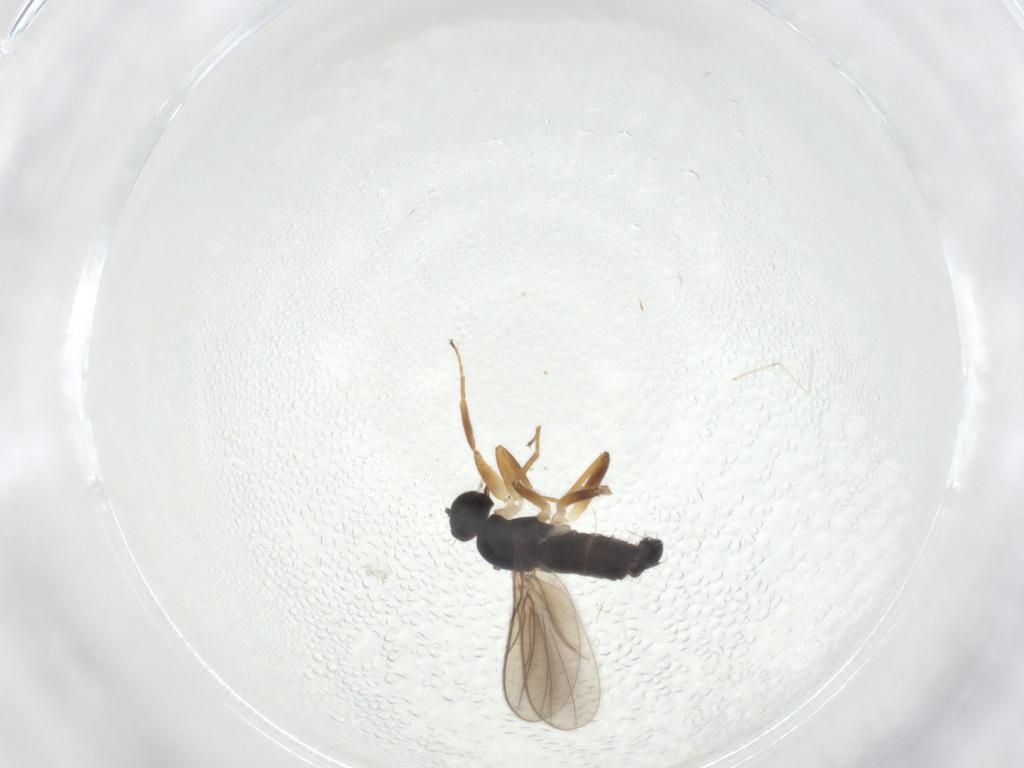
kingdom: Animalia
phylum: Arthropoda
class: Insecta
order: Diptera
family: Cecidomyiidae
